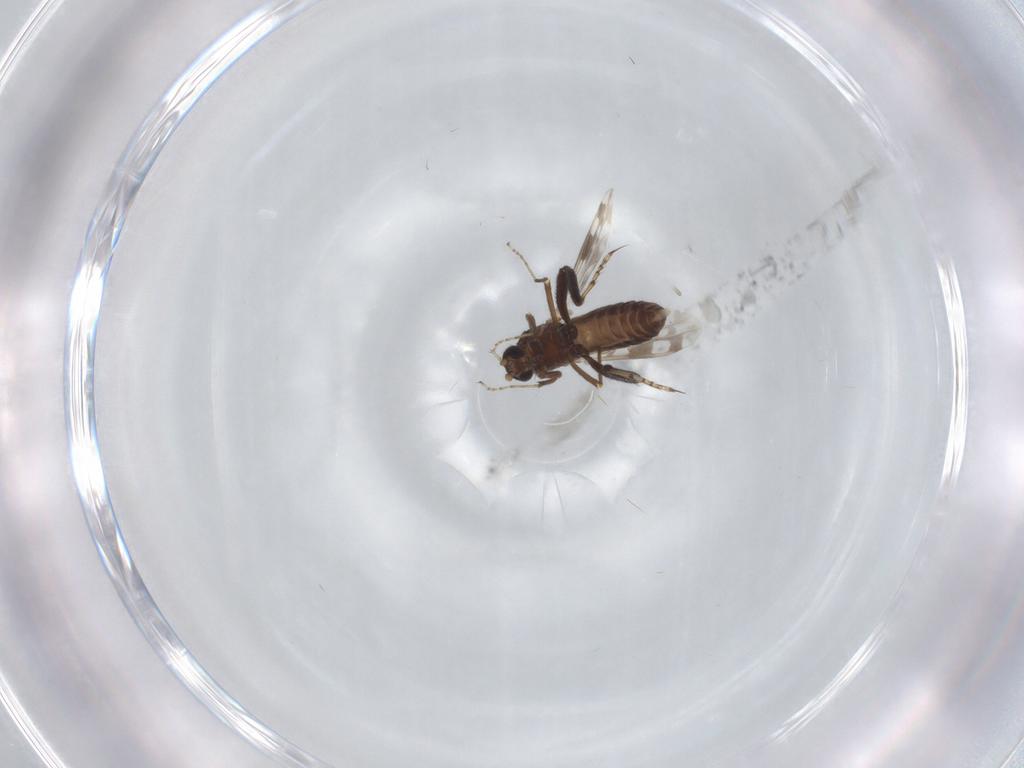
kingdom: Animalia
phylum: Arthropoda
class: Insecta
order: Diptera
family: Ceratopogonidae
